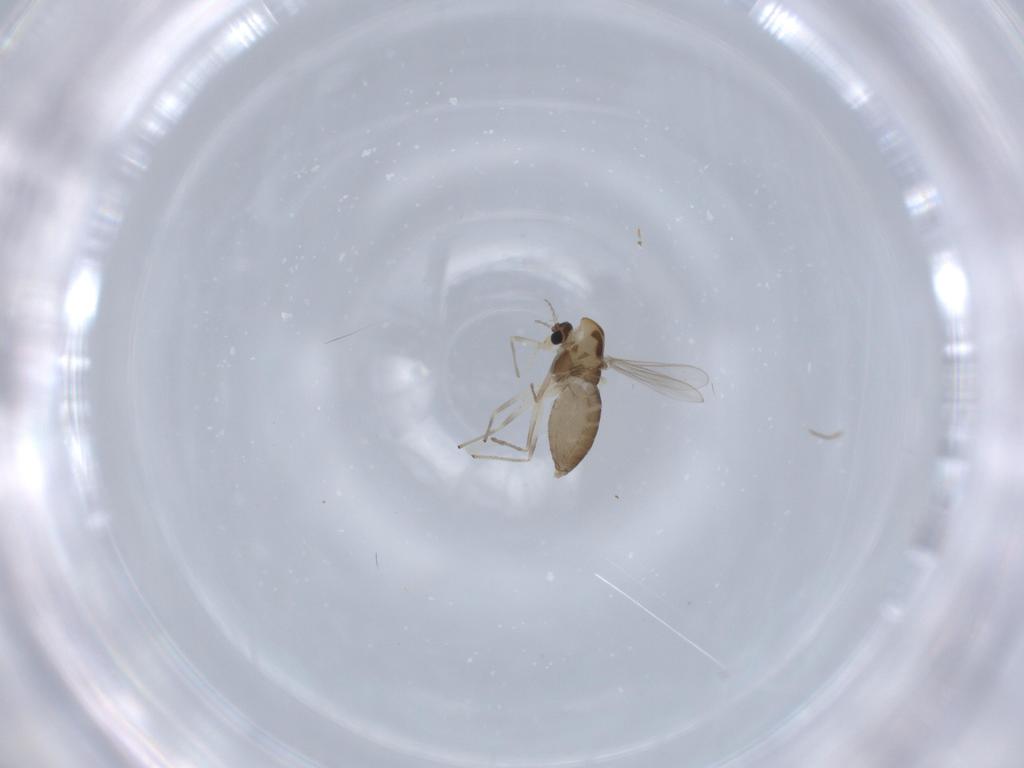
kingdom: Animalia
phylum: Arthropoda
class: Insecta
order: Diptera
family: Chironomidae
